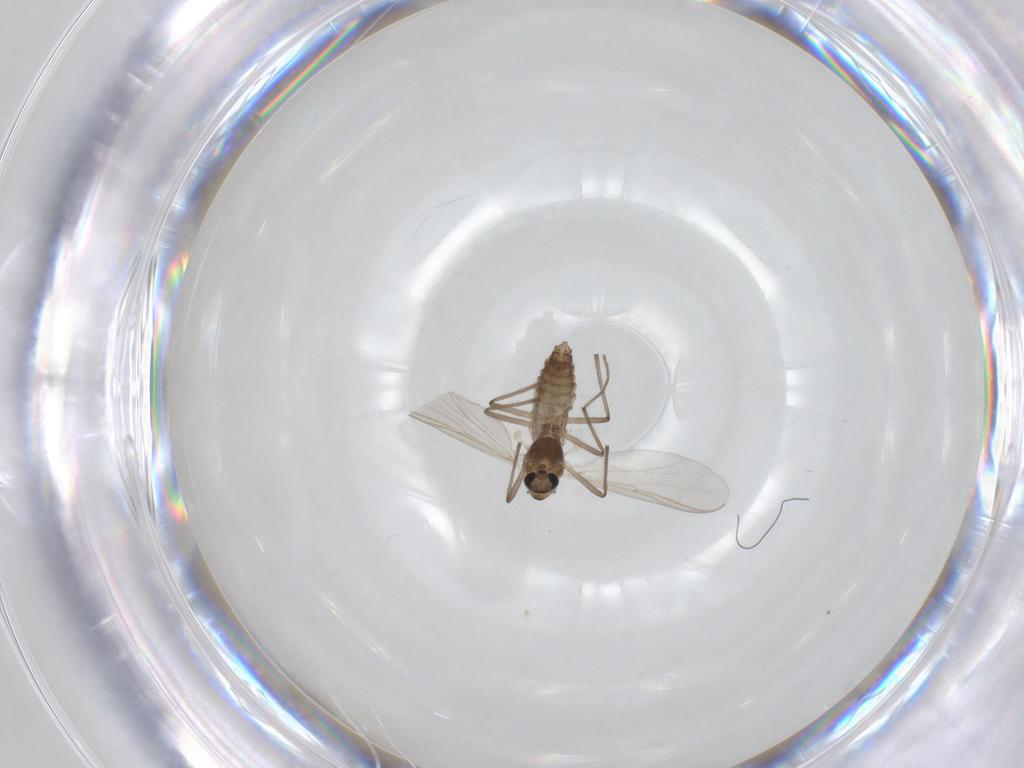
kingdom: Animalia
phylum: Arthropoda
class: Insecta
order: Diptera
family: Chironomidae
